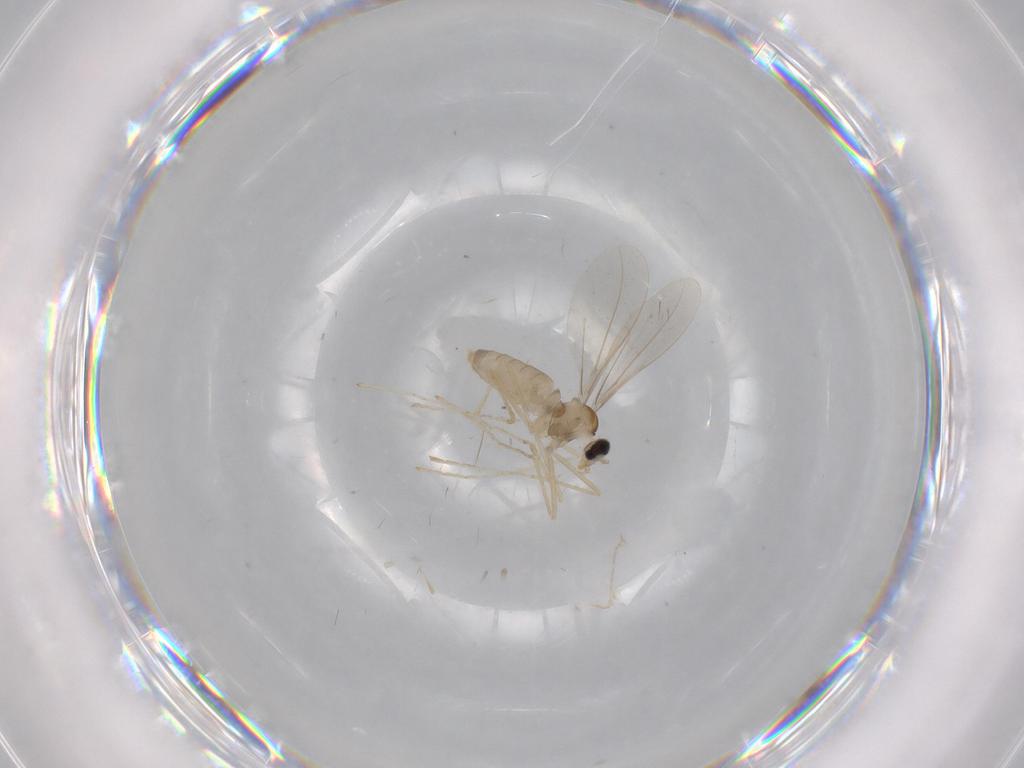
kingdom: Animalia
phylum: Arthropoda
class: Insecta
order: Diptera
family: Cecidomyiidae
